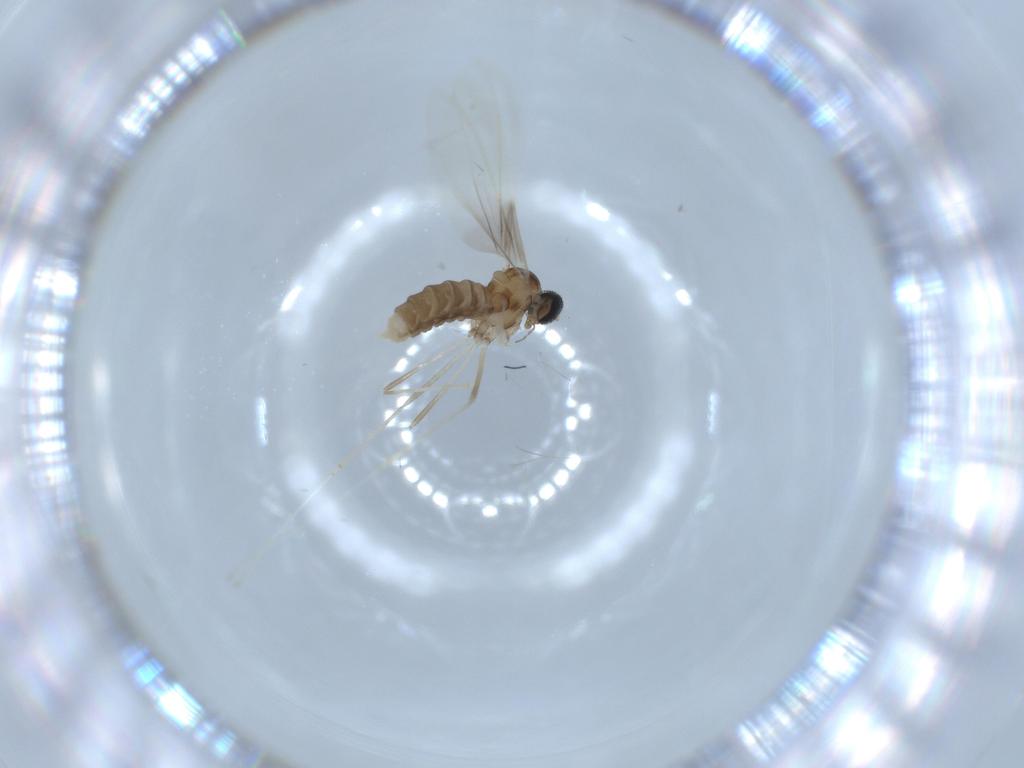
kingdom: Animalia
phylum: Arthropoda
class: Insecta
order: Diptera
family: Cecidomyiidae
